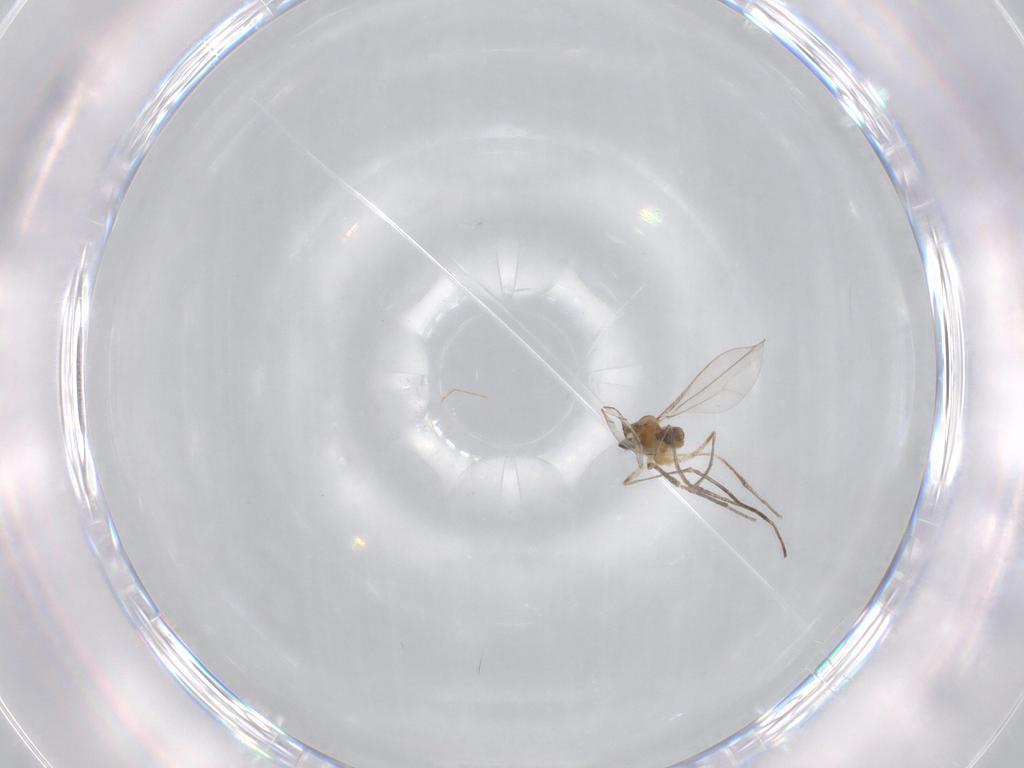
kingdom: Animalia
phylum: Arthropoda
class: Insecta
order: Diptera
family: Cecidomyiidae
